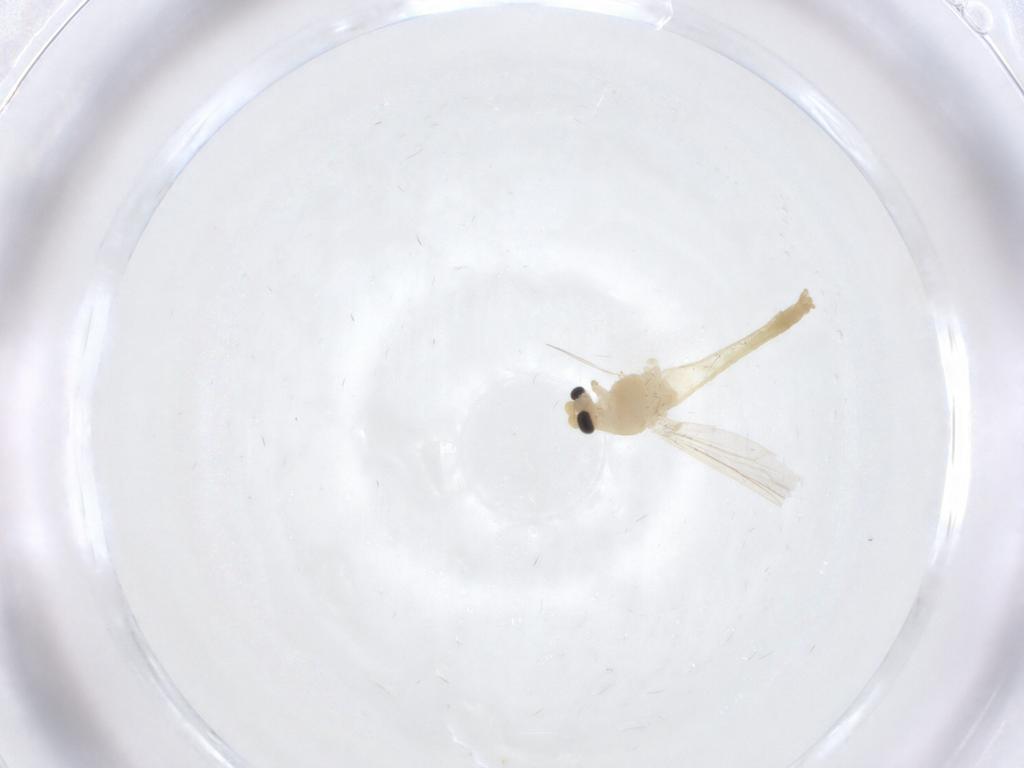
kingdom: Animalia
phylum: Arthropoda
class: Insecta
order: Diptera
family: Chironomidae
